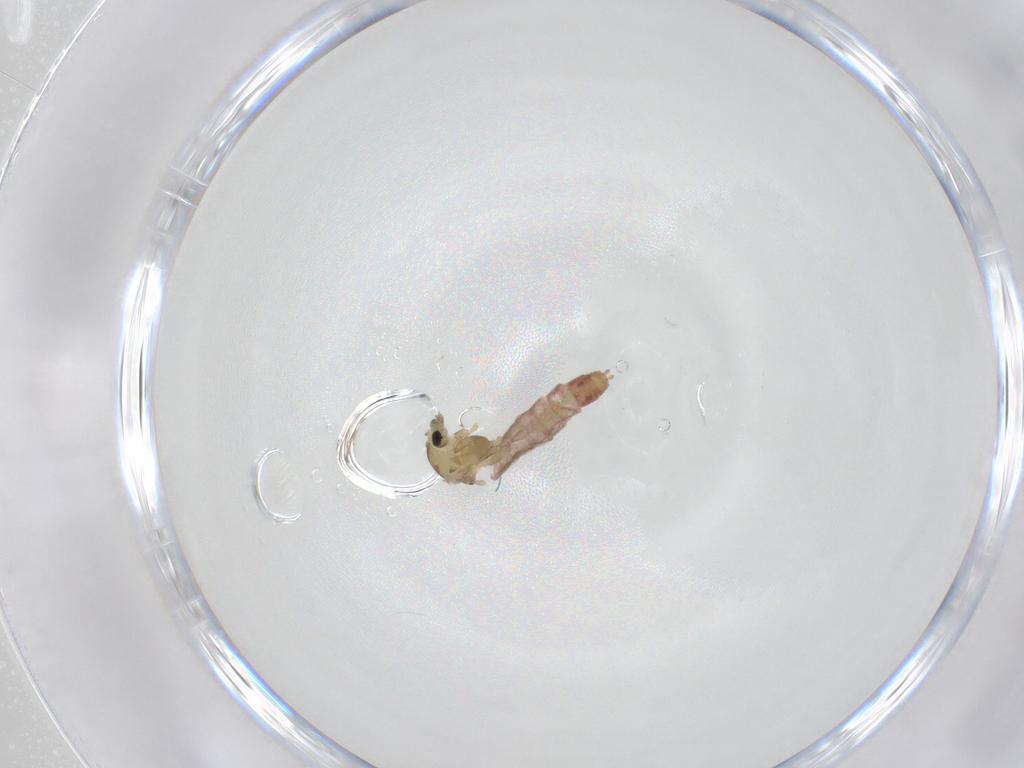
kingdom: Animalia
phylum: Arthropoda
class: Insecta
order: Diptera
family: Chironomidae
